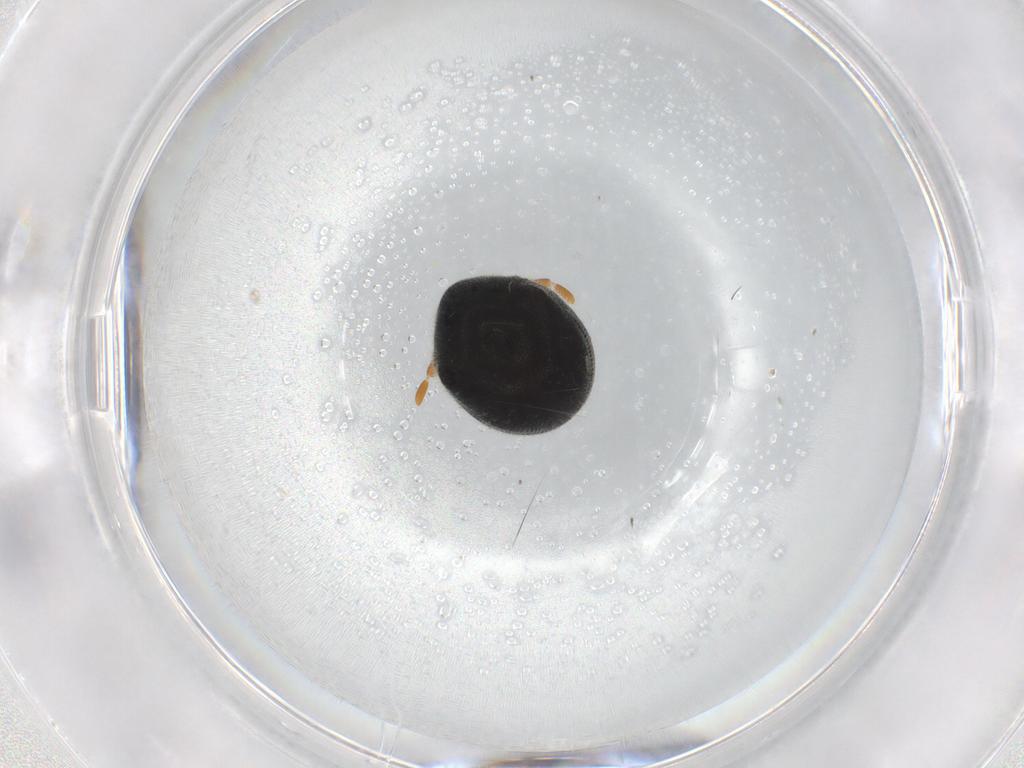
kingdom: Animalia
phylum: Arthropoda
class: Insecta
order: Coleoptera
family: Ptinidae
